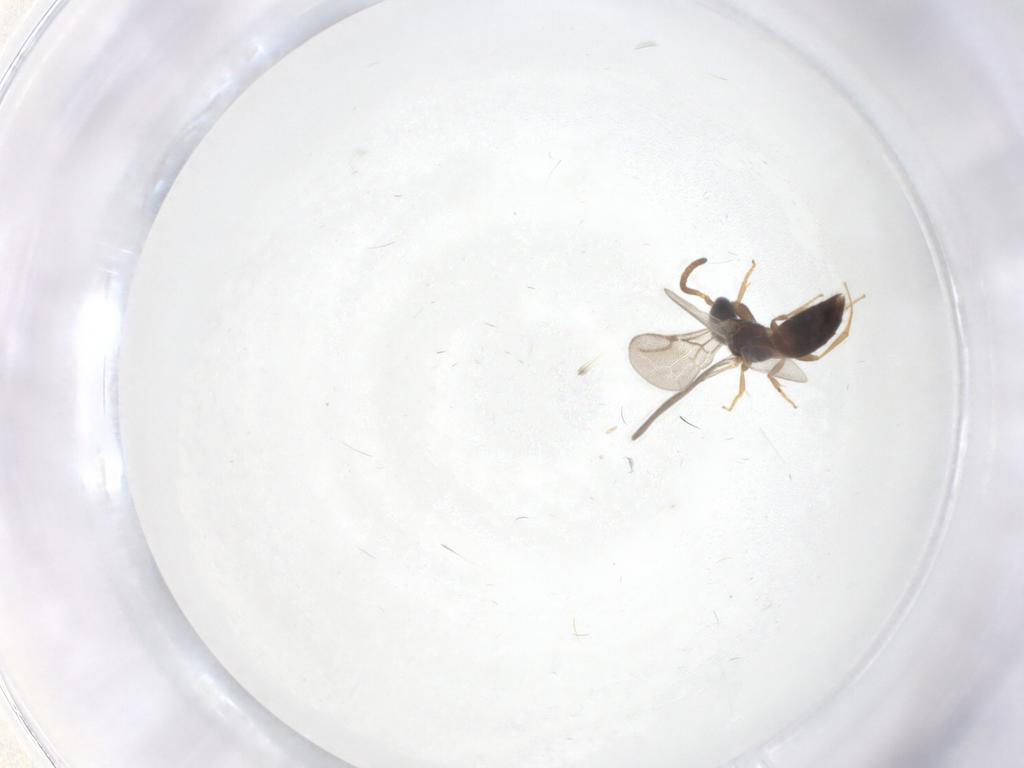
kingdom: Animalia
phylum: Arthropoda
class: Insecta
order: Hymenoptera
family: Bethylidae
